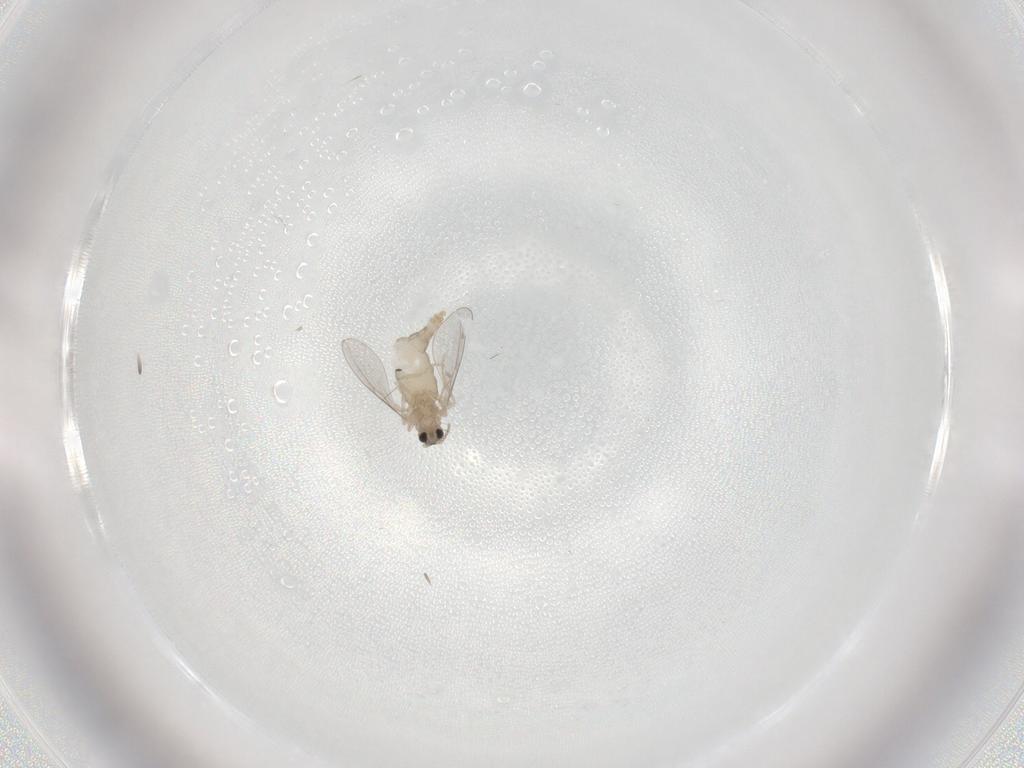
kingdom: Animalia
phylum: Arthropoda
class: Insecta
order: Diptera
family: Cecidomyiidae
